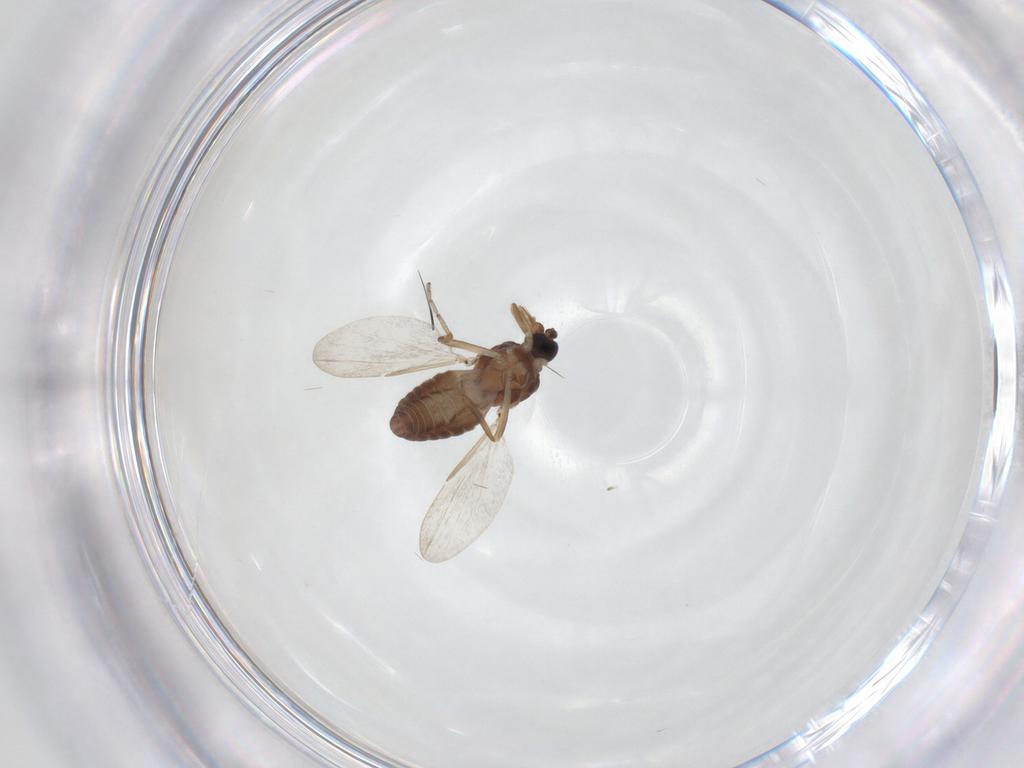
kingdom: Animalia
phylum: Arthropoda
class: Insecta
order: Diptera
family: Ceratopogonidae
